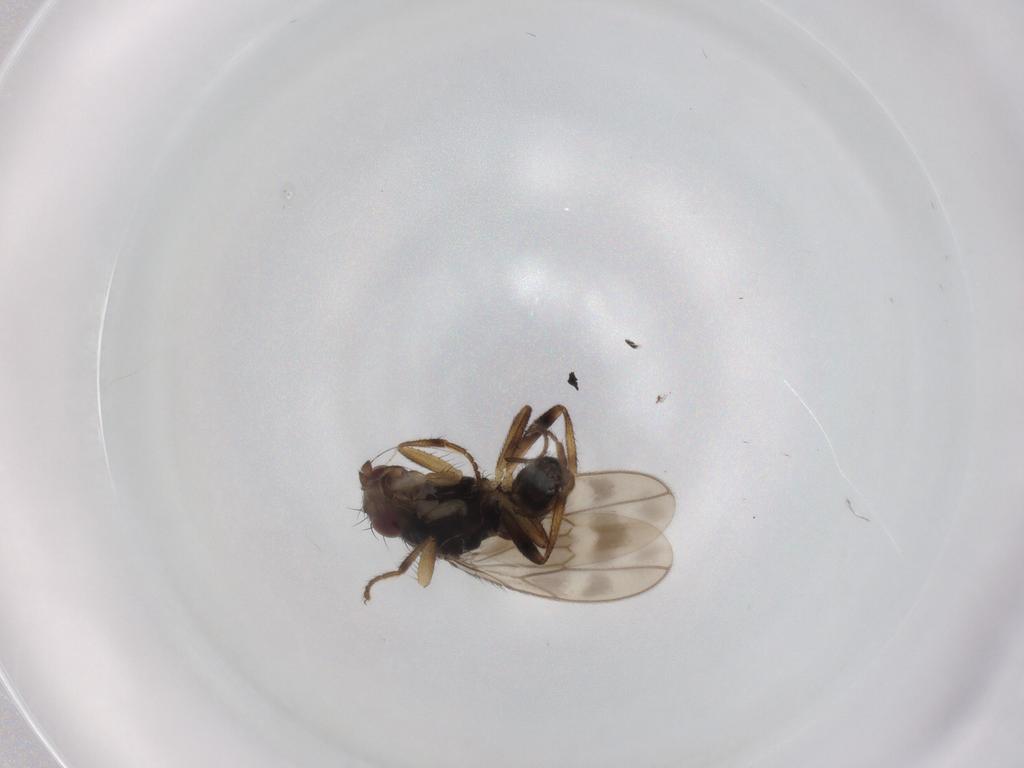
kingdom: Animalia
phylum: Arthropoda
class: Insecta
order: Diptera
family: Sphaeroceridae
